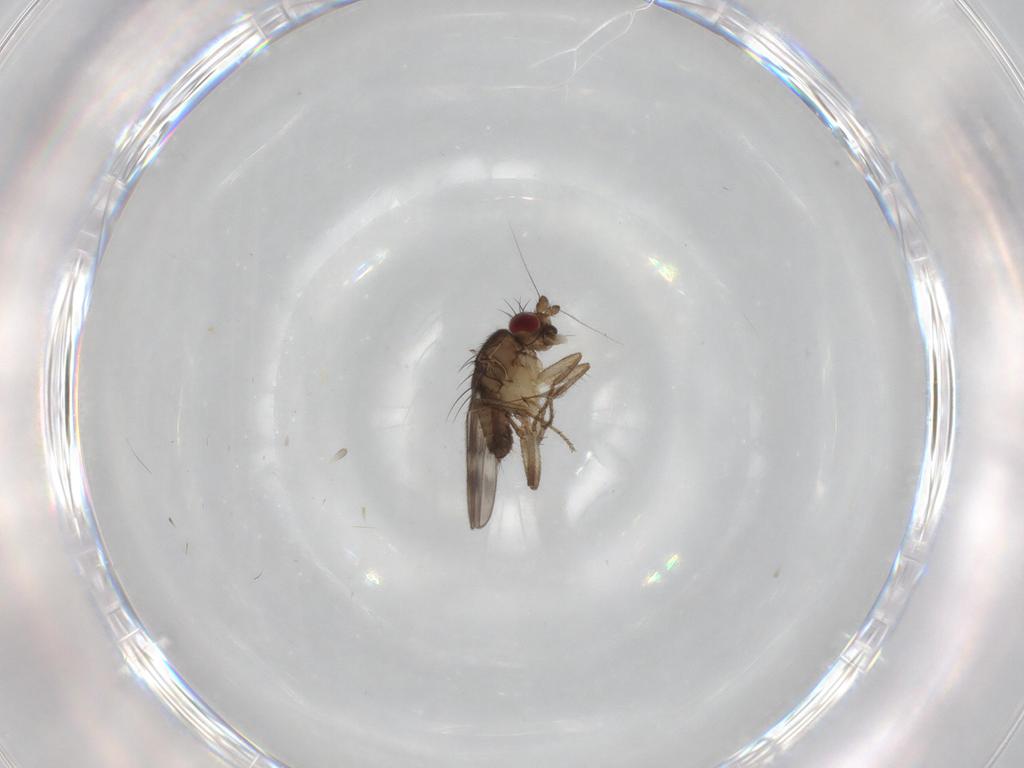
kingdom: Animalia
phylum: Arthropoda
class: Insecta
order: Diptera
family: Sphaeroceridae
